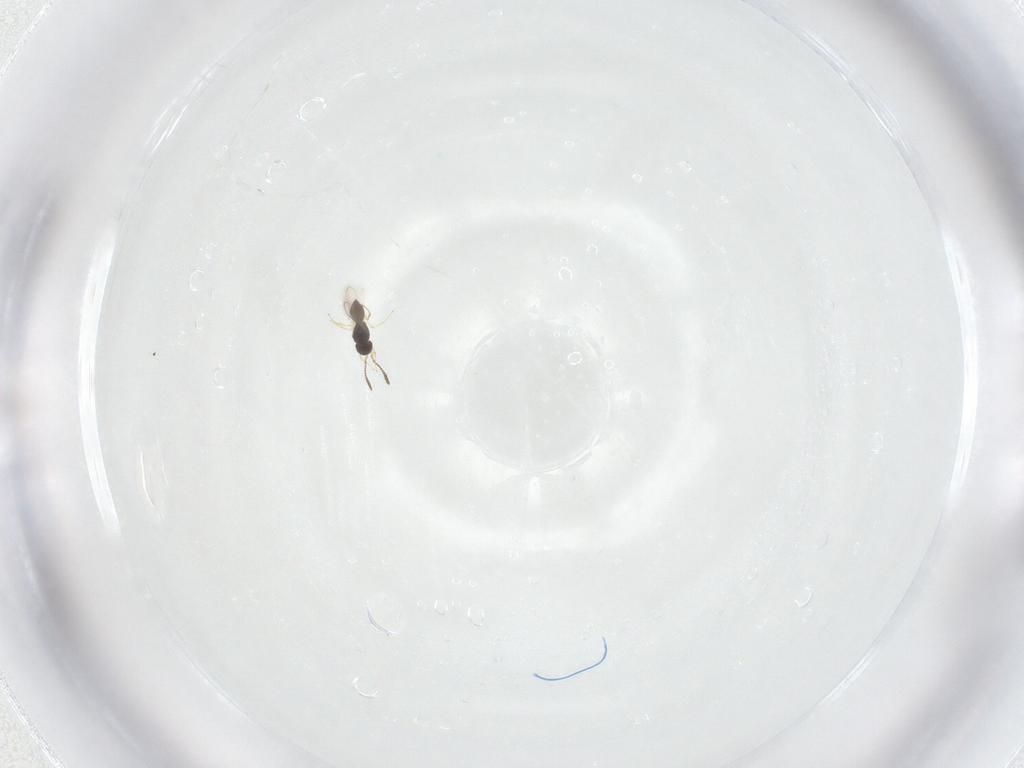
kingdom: Animalia
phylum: Arthropoda
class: Insecta
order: Hymenoptera
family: Scelionidae
